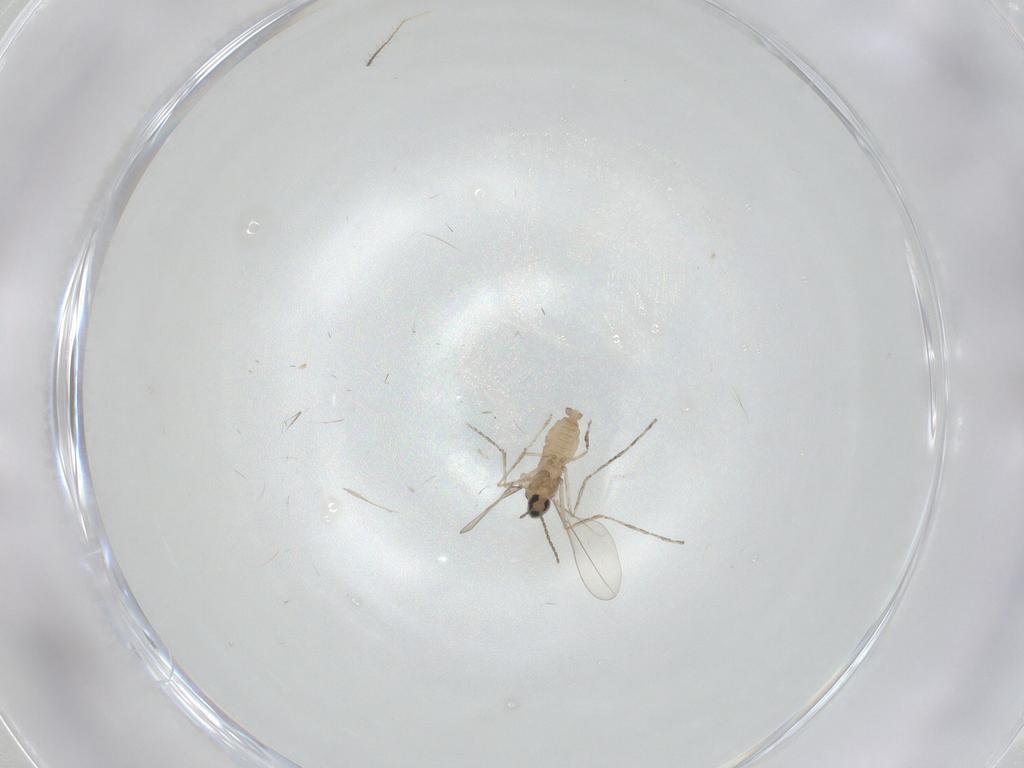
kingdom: Animalia
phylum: Arthropoda
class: Insecta
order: Diptera
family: Cecidomyiidae
